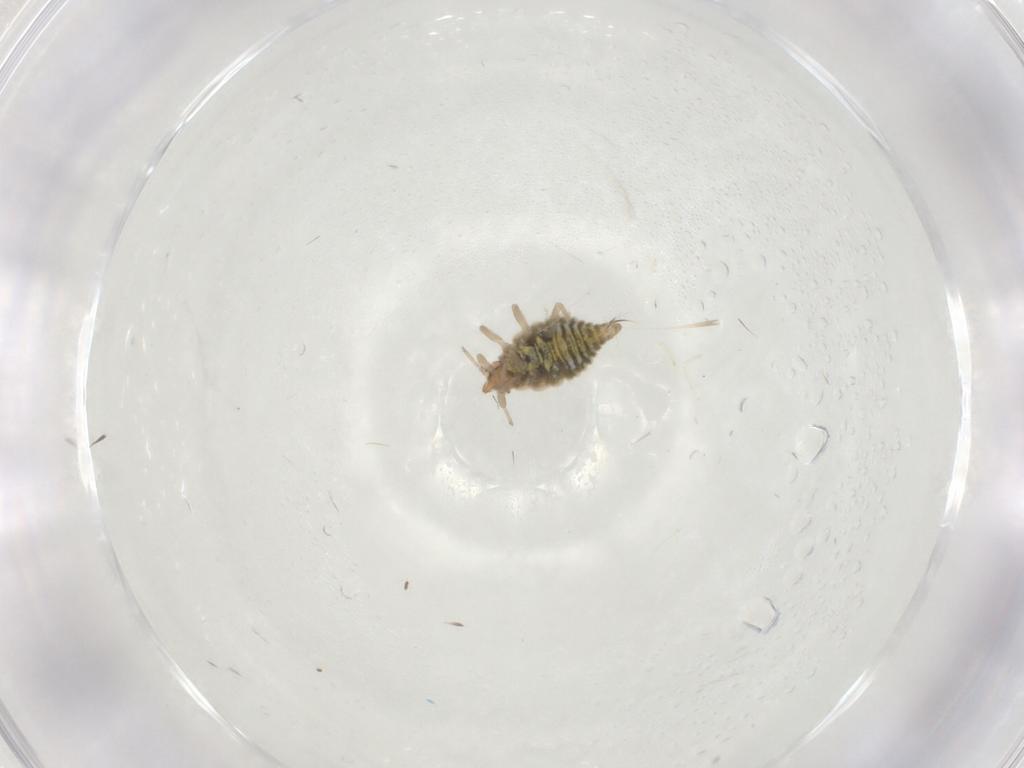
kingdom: Animalia
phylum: Arthropoda
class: Insecta
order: Neuroptera
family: Coniopterygidae
